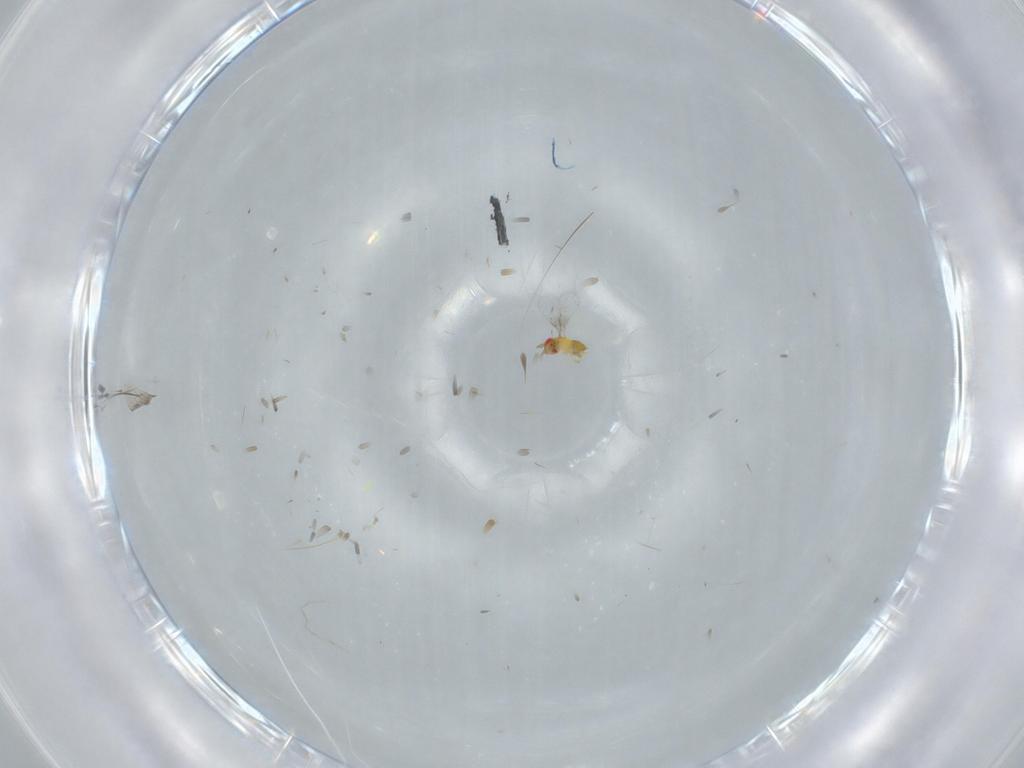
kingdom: Animalia
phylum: Arthropoda
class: Insecta
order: Hymenoptera
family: Trichogrammatidae
